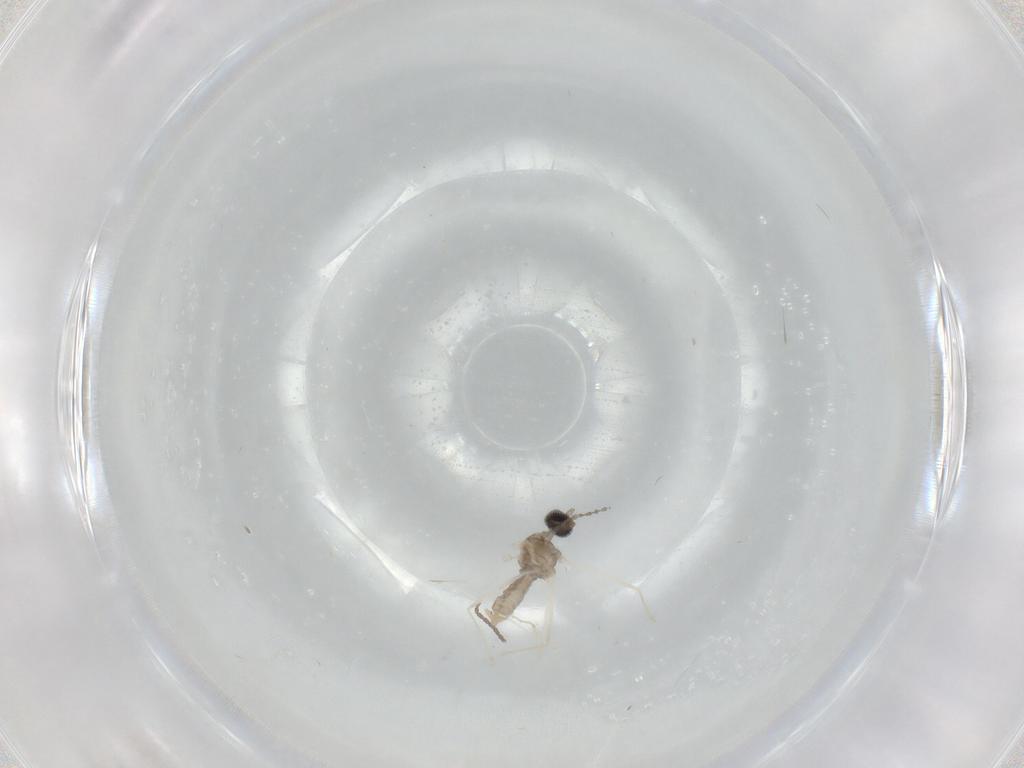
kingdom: Animalia
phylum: Arthropoda
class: Insecta
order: Diptera
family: Cecidomyiidae
